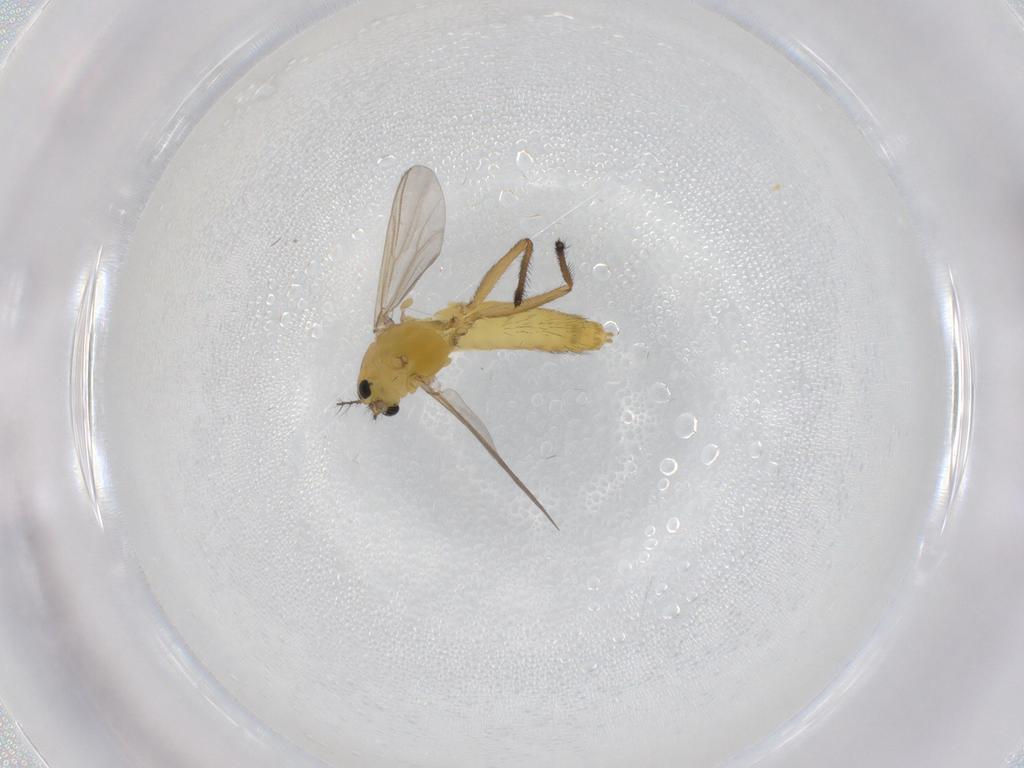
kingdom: Animalia
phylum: Arthropoda
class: Insecta
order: Diptera
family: Chironomidae
